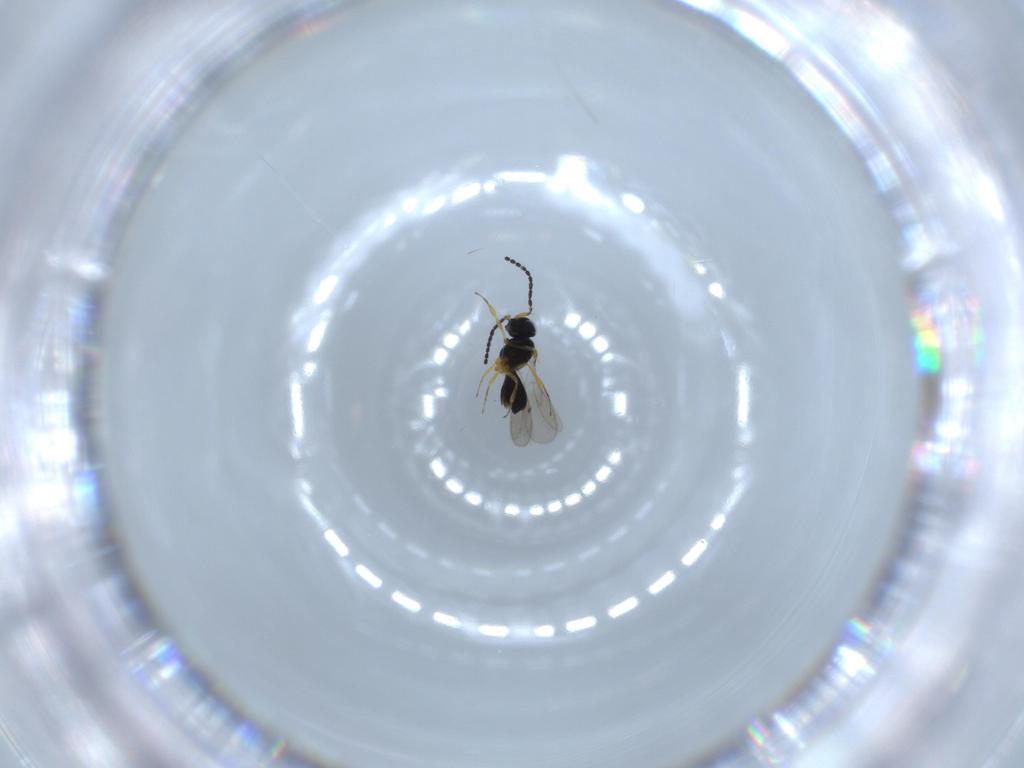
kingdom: Animalia
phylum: Arthropoda
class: Insecta
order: Hymenoptera
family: Scelionidae
